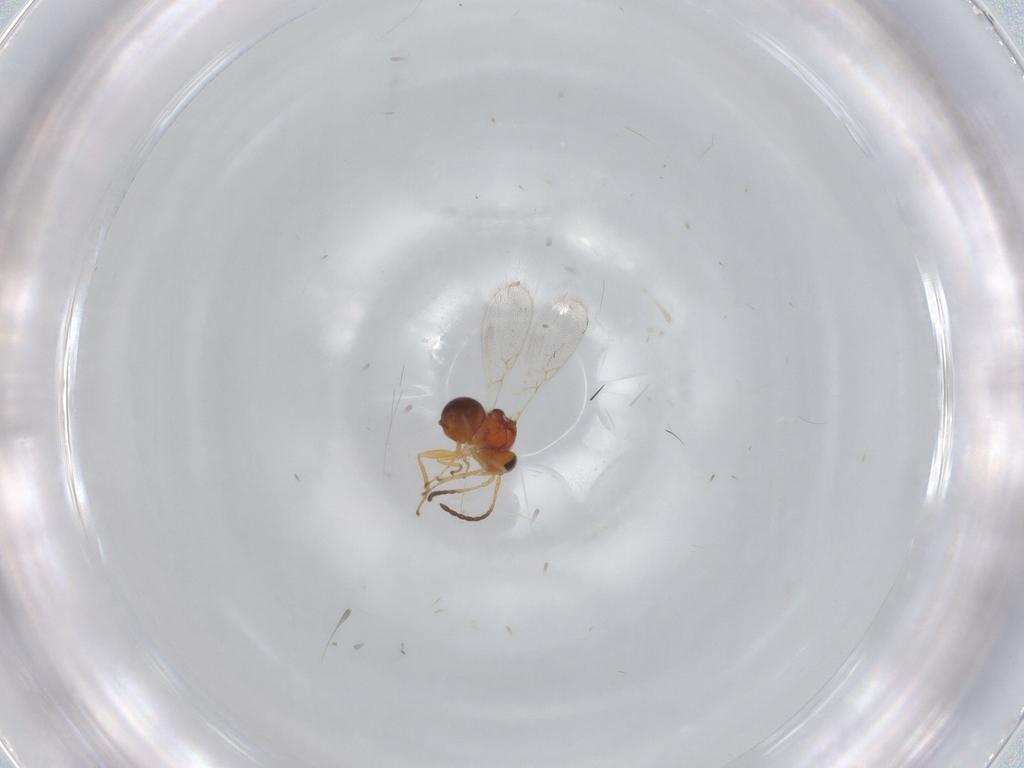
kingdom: Animalia
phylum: Arthropoda
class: Insecta
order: Hymenoptera
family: Figitidae
